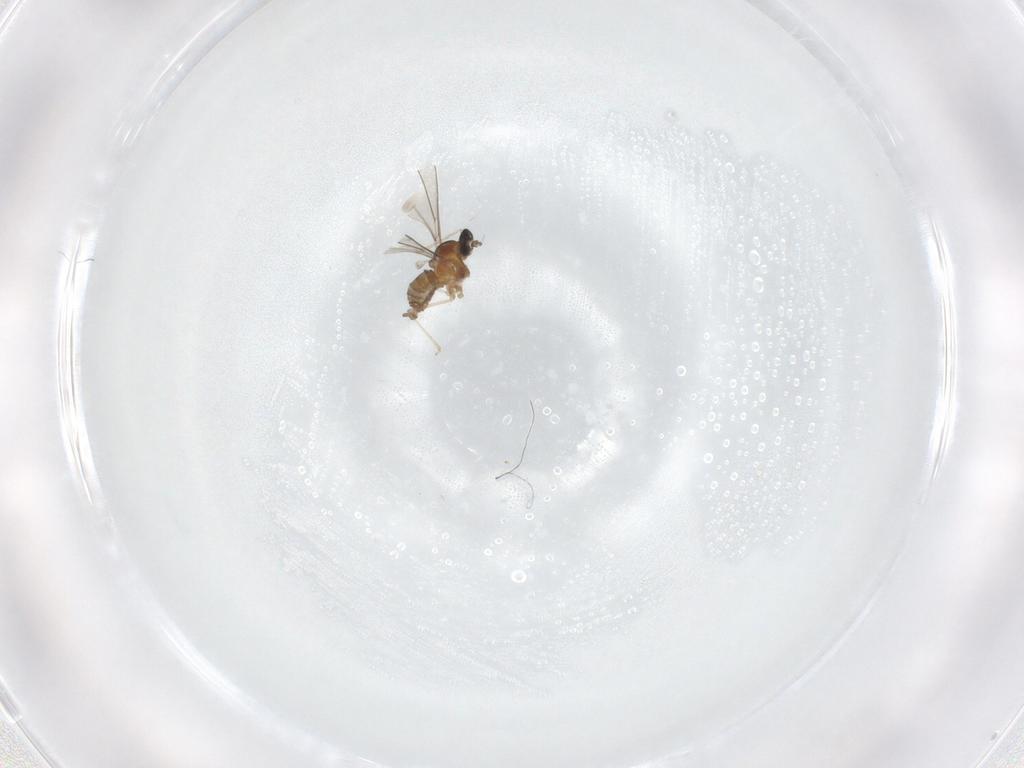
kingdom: Animalia
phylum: Arthropoda
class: Insecta
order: Diptera
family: Cecidomyiidae
